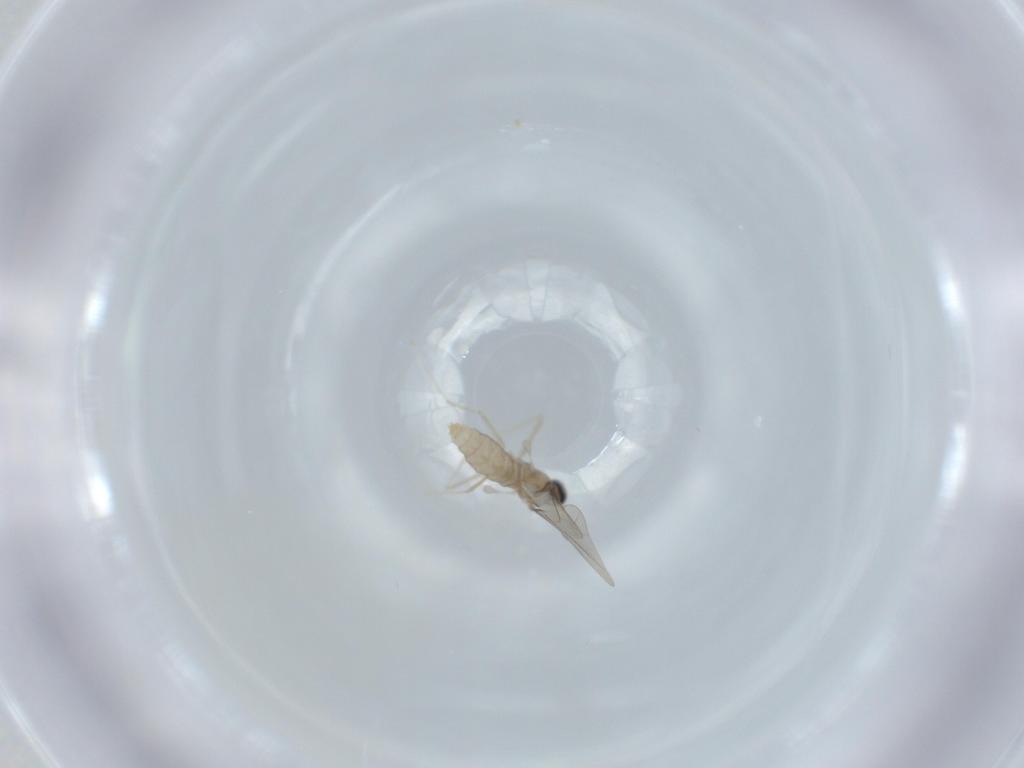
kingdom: Animalia
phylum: Arthropoda
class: Insecta
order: Diptera
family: Cecidomyiidae
